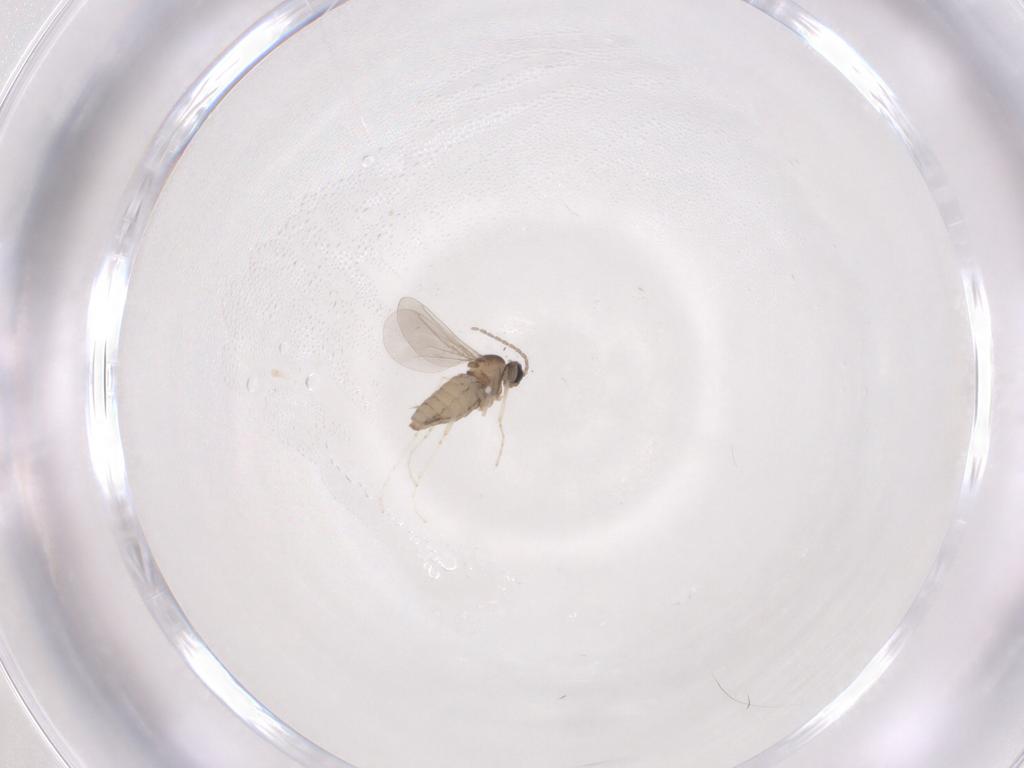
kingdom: Animalia
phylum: Arthropoda
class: Insecta
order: Diptera
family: Cecidomyiidae
